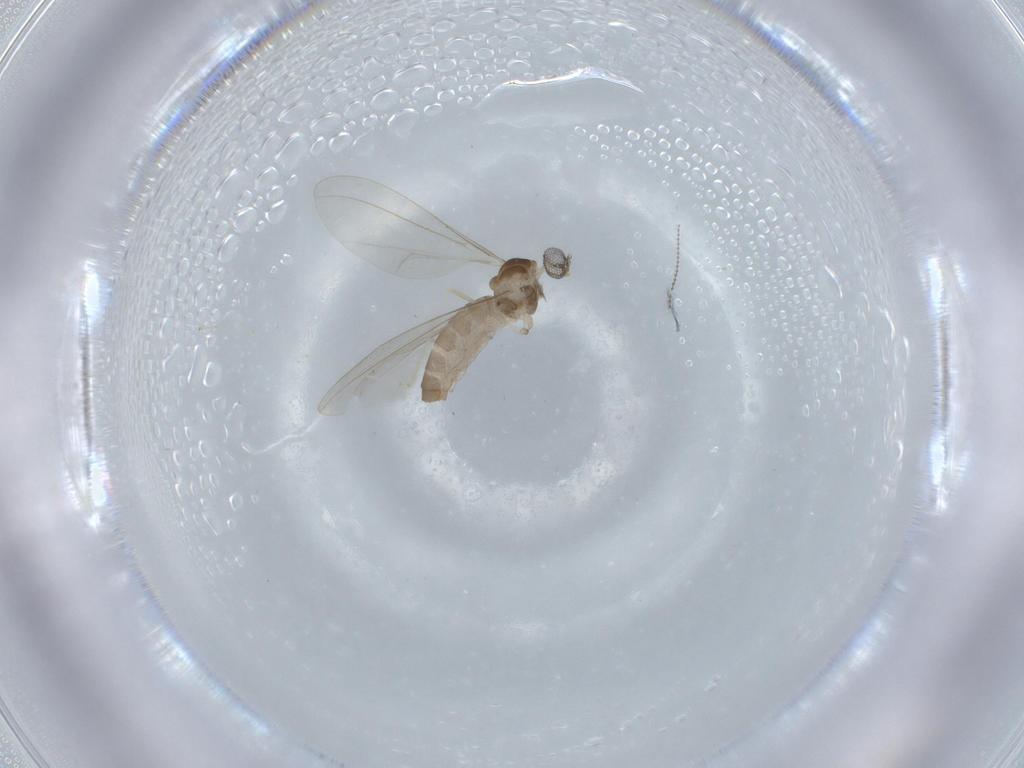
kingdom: Animalia
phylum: Arthropoda
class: Insecta
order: Diptera
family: Cecidomyiidae
